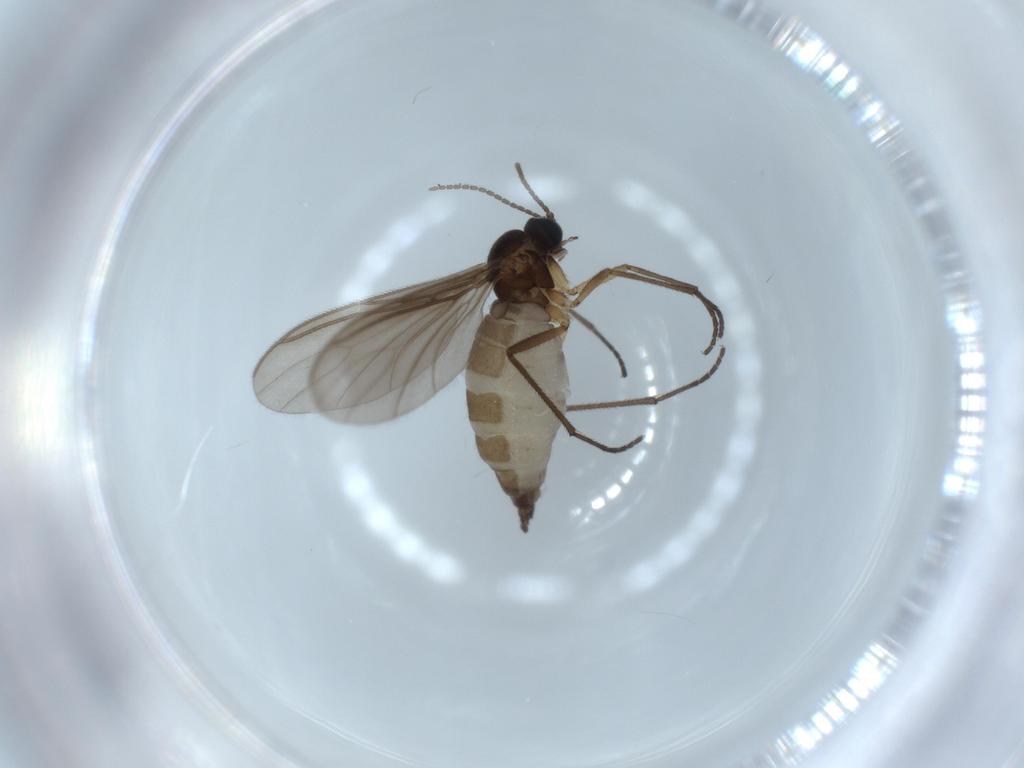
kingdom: Animalia
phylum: Arthropoda
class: Insecta
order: Diptera
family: Sciaridae
